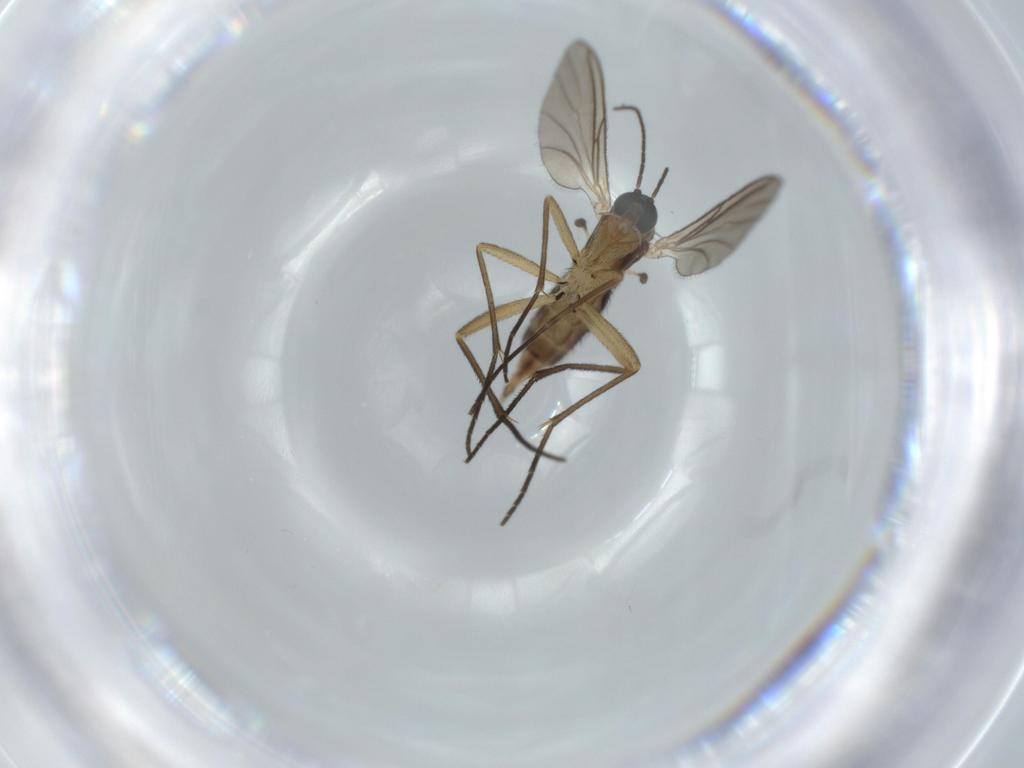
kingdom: Animalia
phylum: Arthropoda
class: Insecta
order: Diptera
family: Sciaridae
